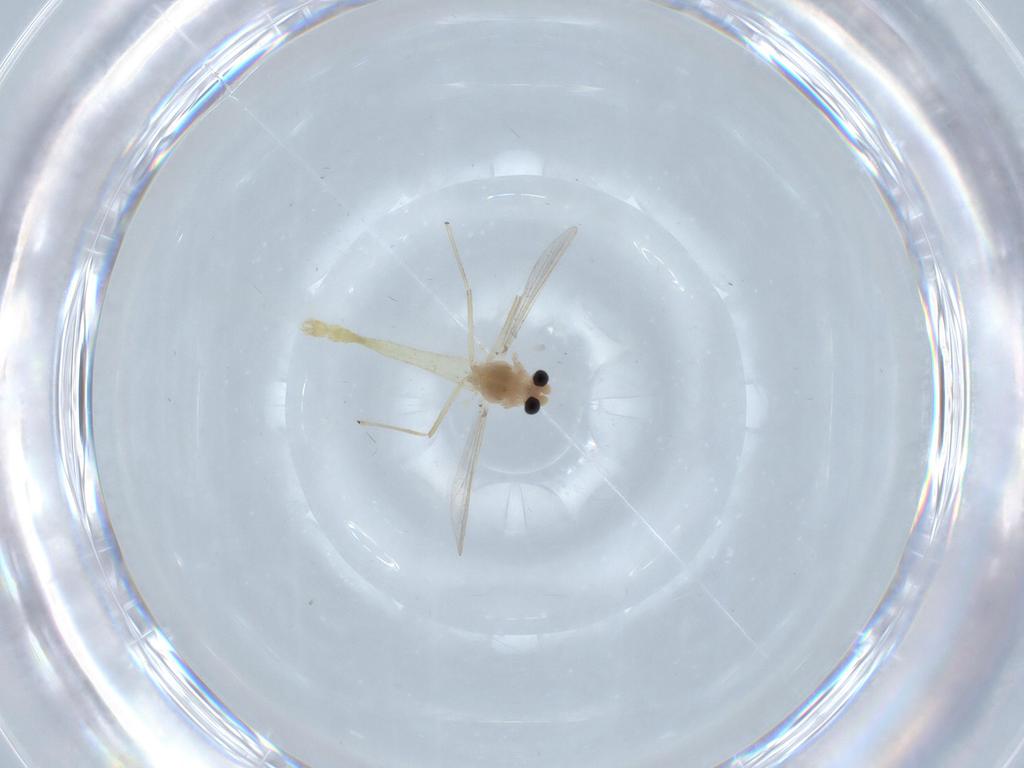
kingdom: Animalia
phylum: Arthropoda
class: Insecta
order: Diptera
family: Chironomidae
